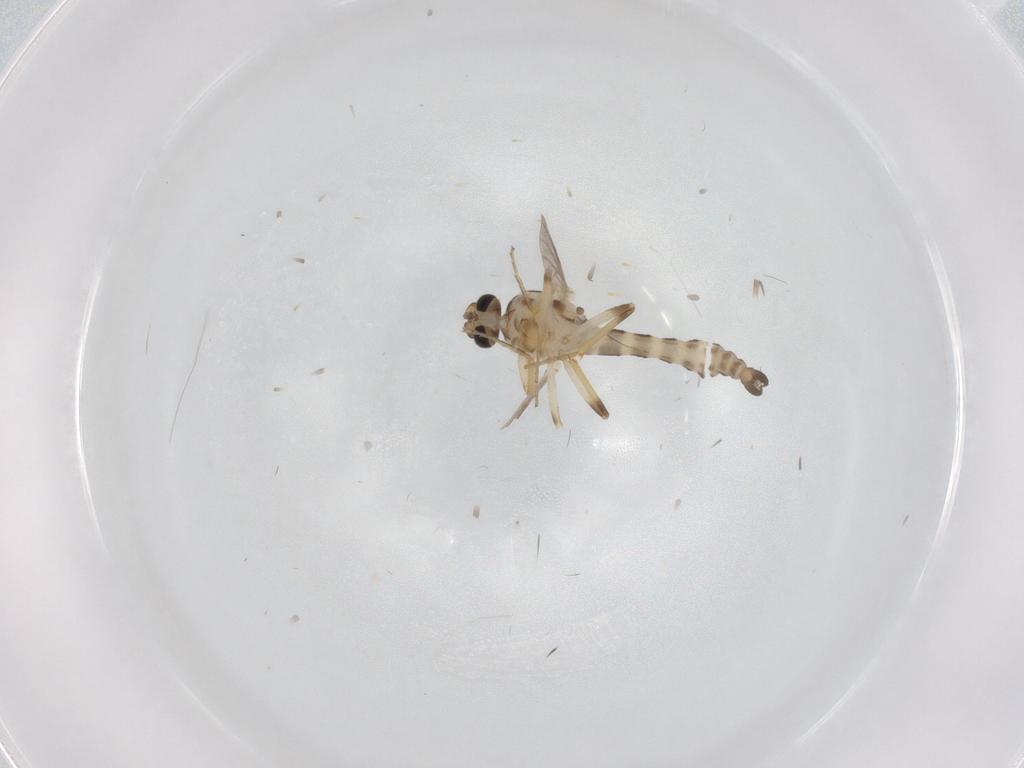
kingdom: Animalia
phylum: Arthropoda
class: Insecta
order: Diptera
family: Ceratopogonidae
